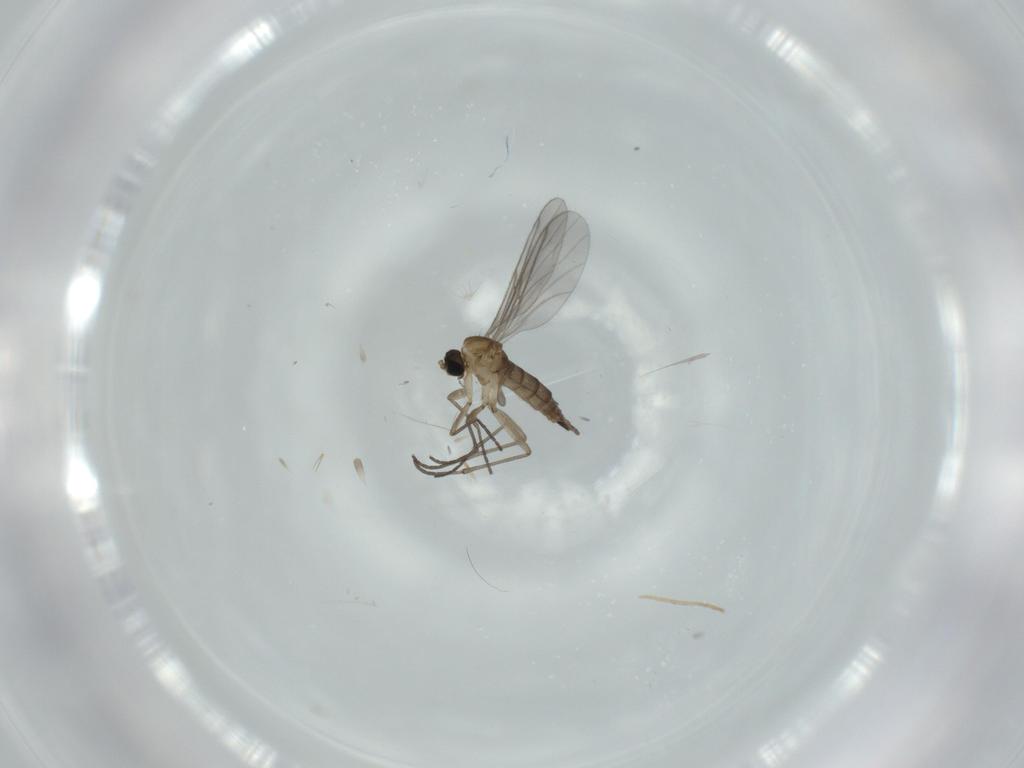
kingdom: Animalia
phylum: Arthropoda
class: Insecta
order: Diptera
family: Sciaridae
